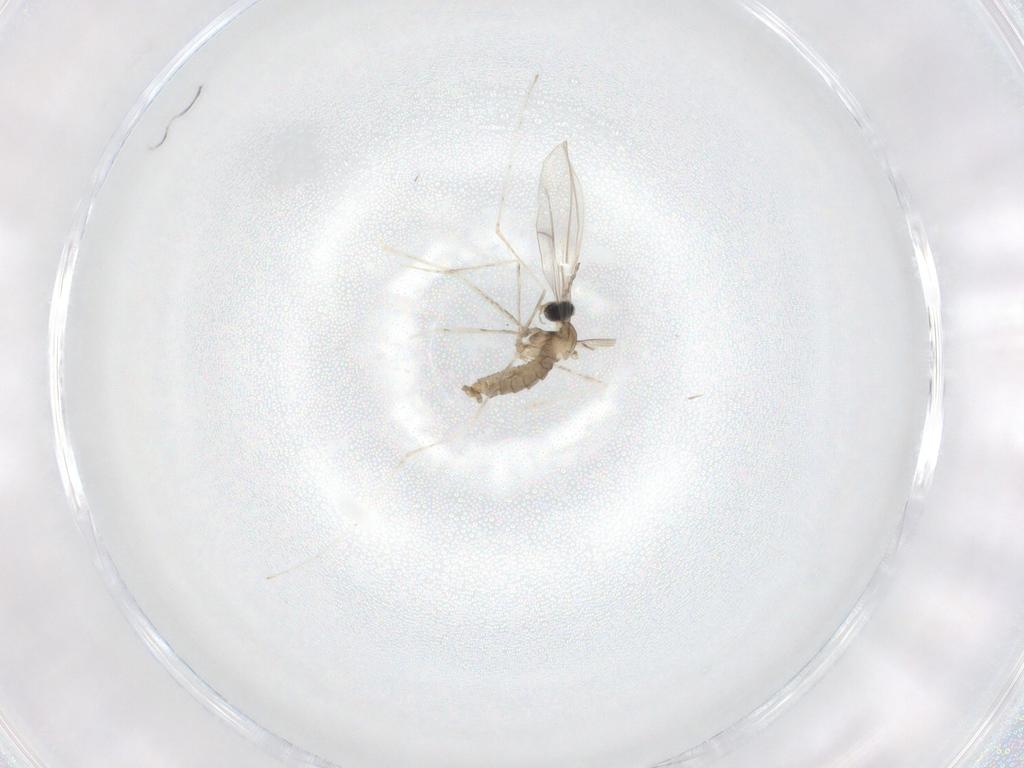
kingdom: Animalia
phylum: Arthropoda
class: Insecta
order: Diptera
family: Cecidomyiidae
